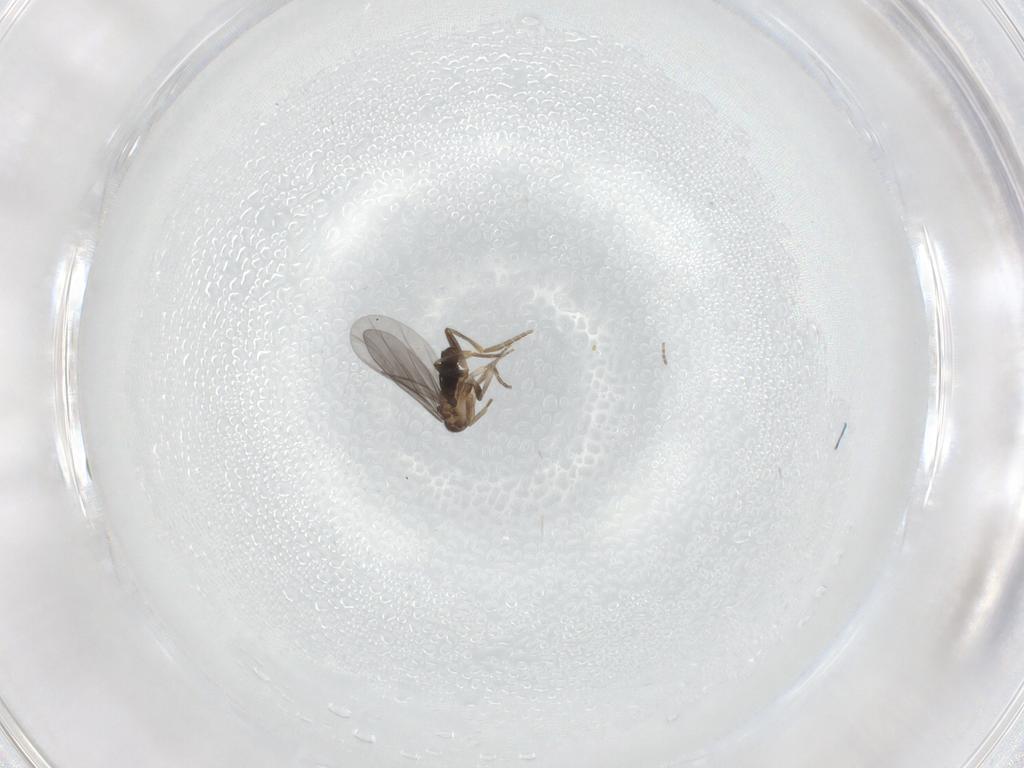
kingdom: Animalia
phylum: Arthropoda
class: Insecta
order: Diptera
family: Phoridae
